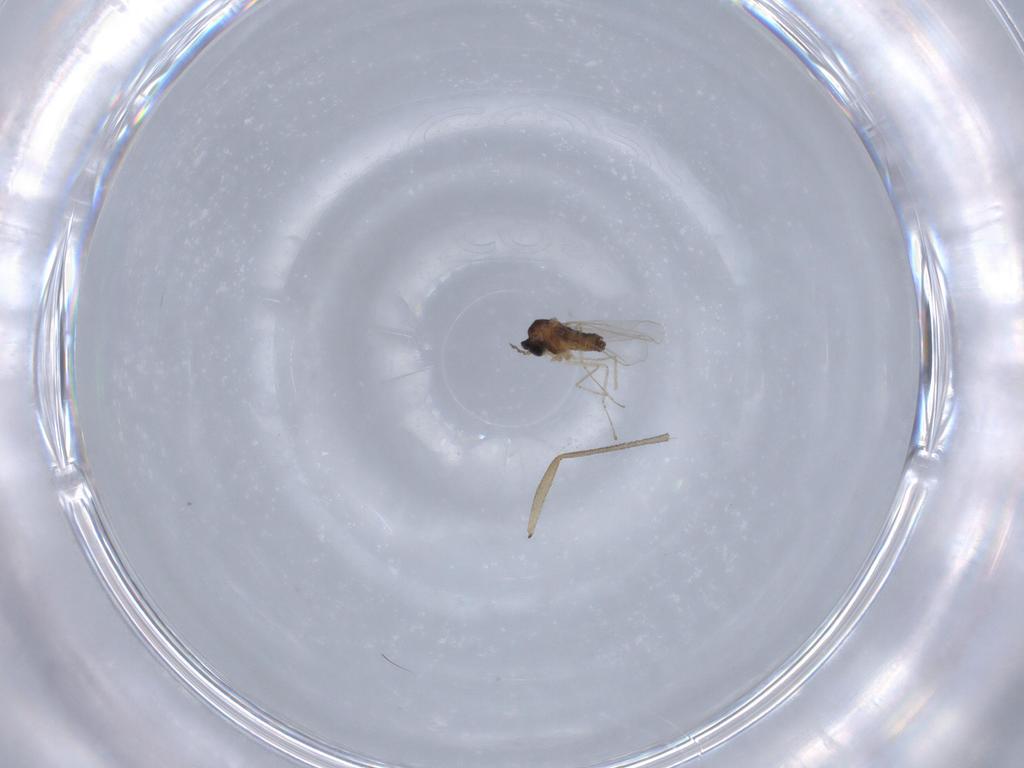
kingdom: Animalia
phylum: Arthropoda
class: Insecta
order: Diptera
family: Sciaridae
